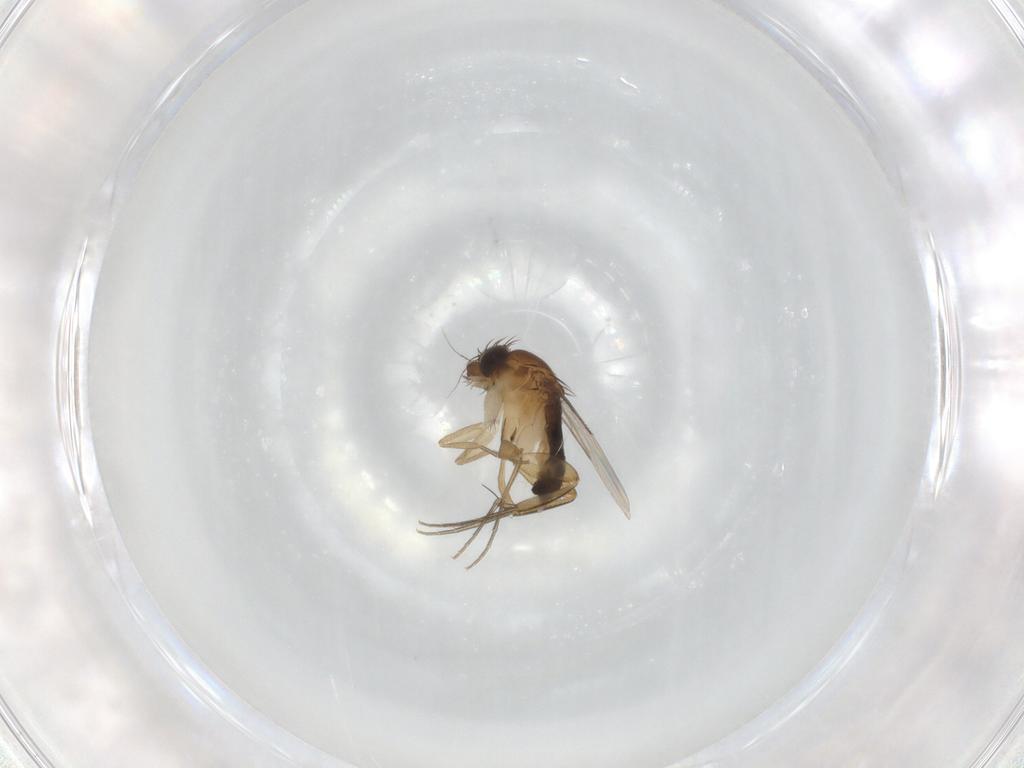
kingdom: Animalia
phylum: Arthropoda
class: Insecta
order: Diptera
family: Phoridae
